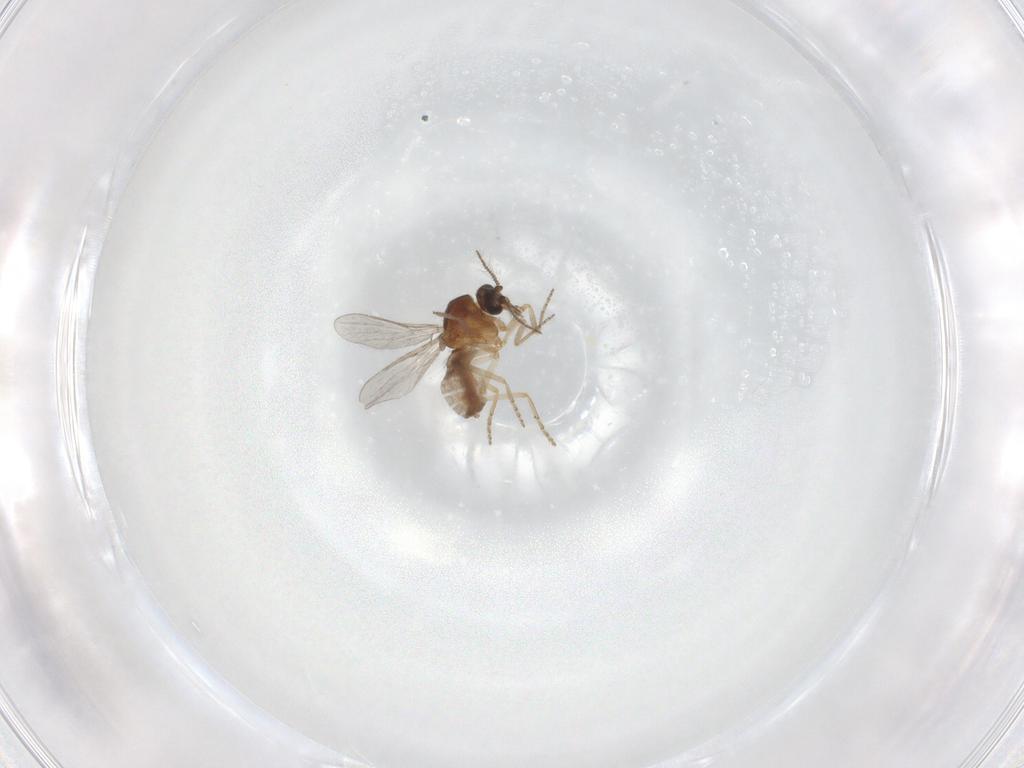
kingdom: Animalia
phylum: Arthropoda
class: Insecta
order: Diptera
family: Ceratopogonidae
